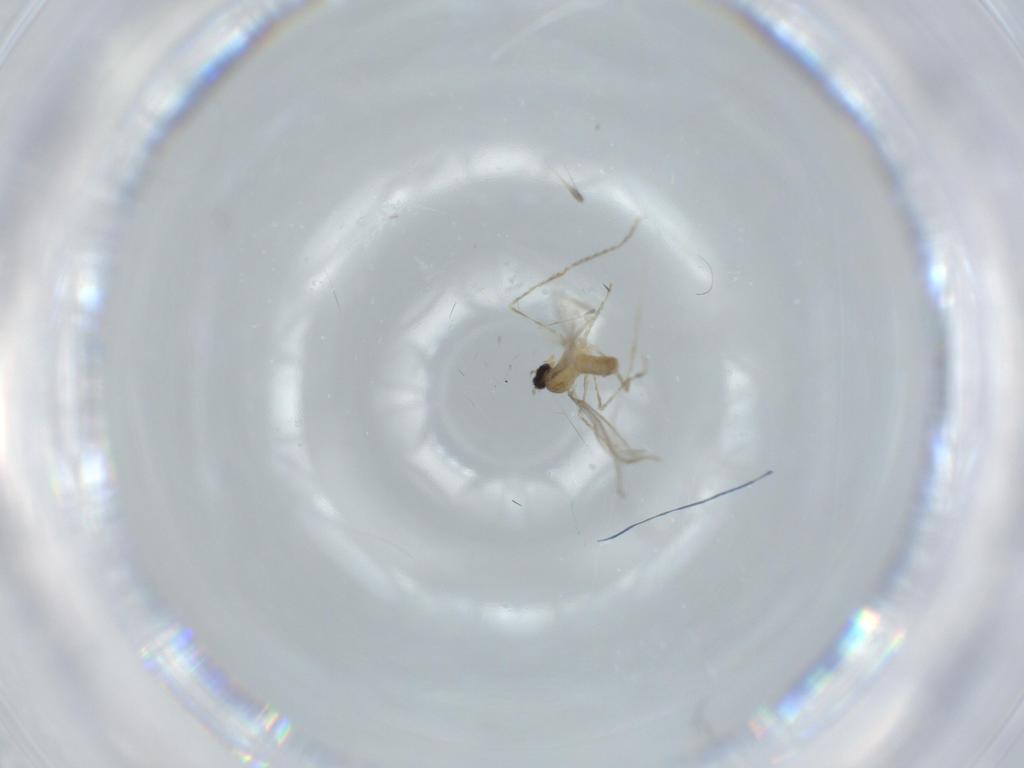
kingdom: Animalia
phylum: Arthropoda
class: Insecta
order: Diptera
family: Cecidomyiidae
